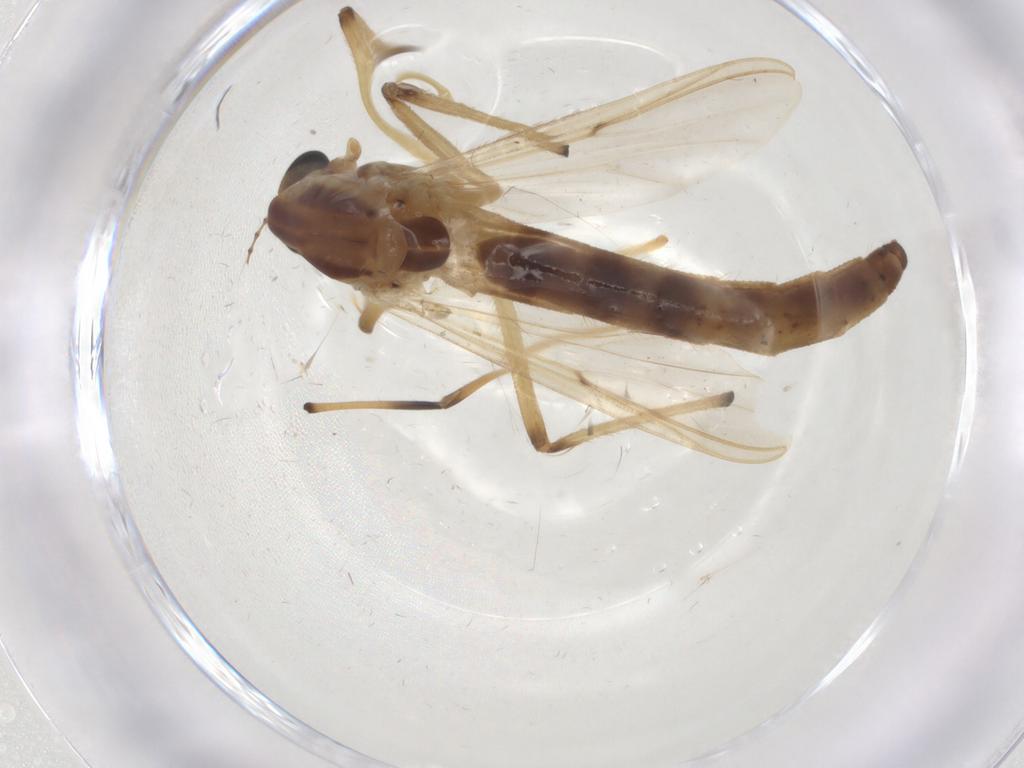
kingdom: Animalia
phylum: Arthropoda
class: Insecta
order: Diptera
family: Chironomidae
